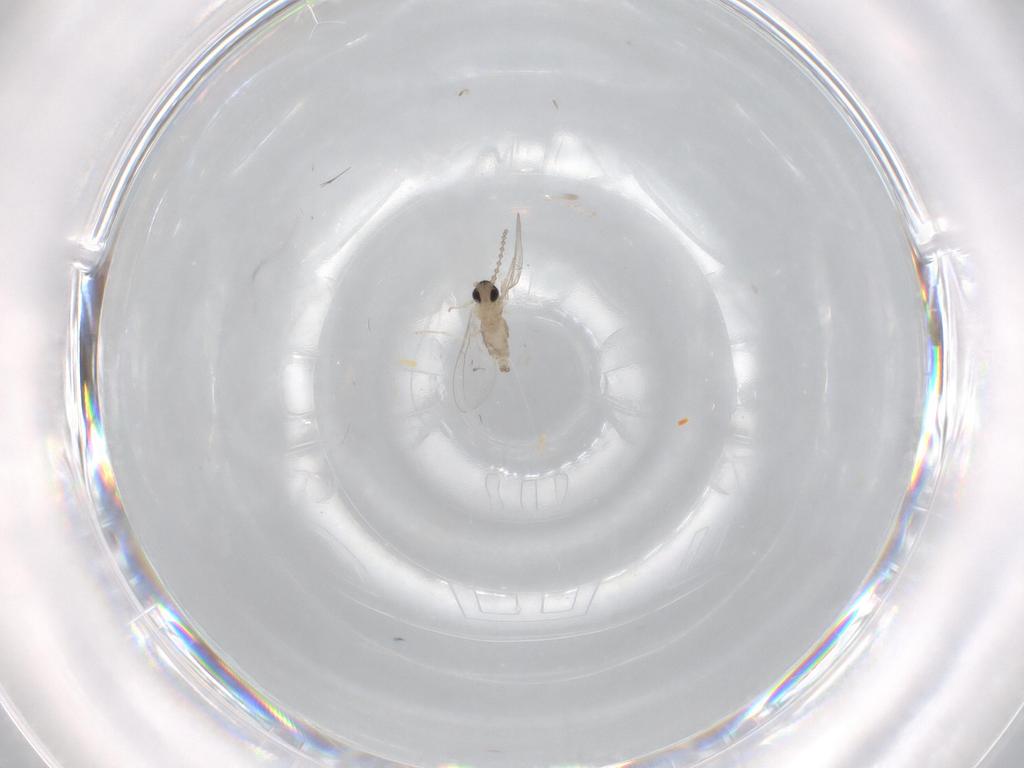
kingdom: Animalia
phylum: Arthropoda
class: Insecta
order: Diptera
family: Cecidomyiidae
